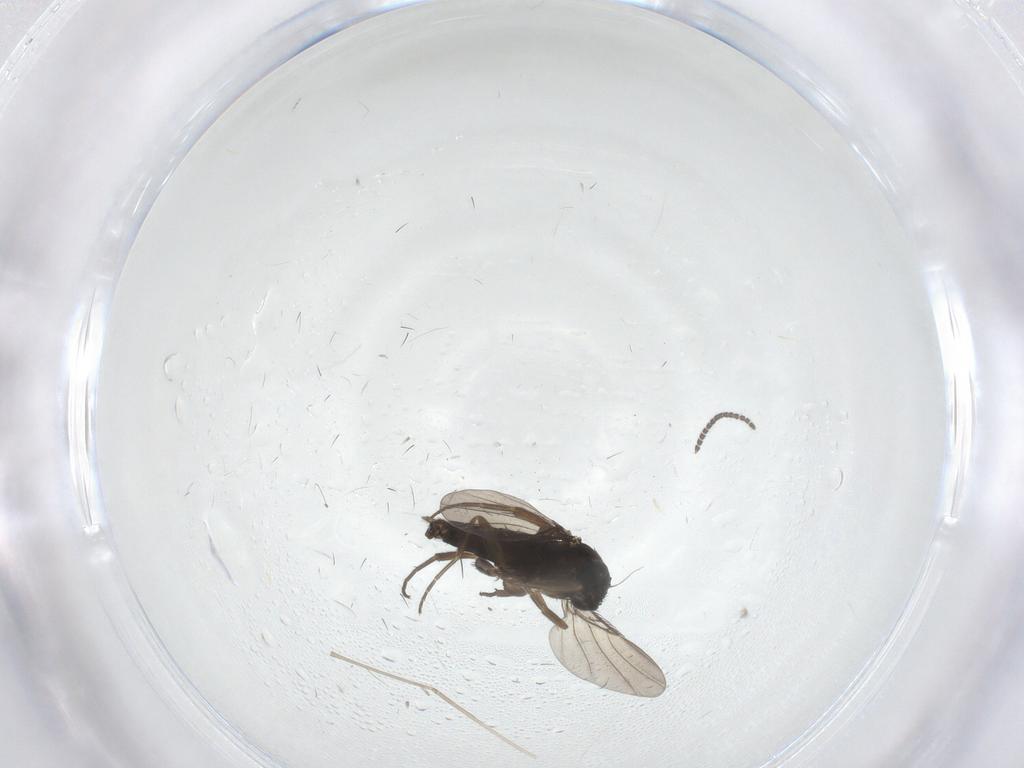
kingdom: Animalia
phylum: Arthropoda
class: Insecta
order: Diptera
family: Phoridae
